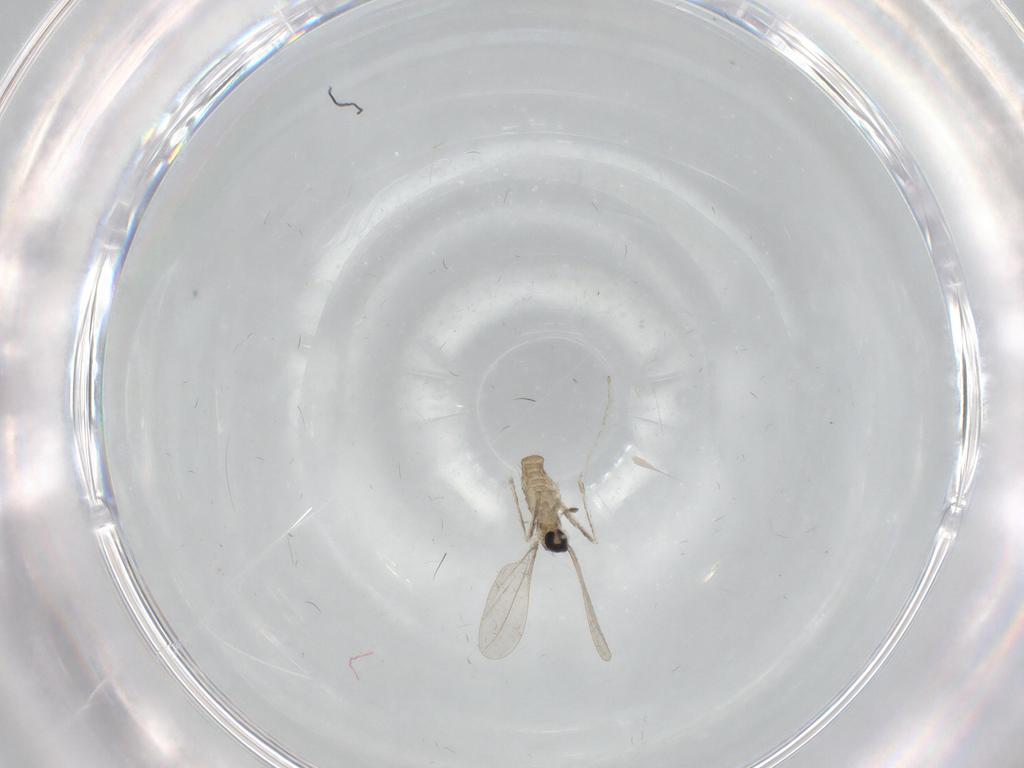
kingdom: Animalia
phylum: Arthropoda
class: Insecta
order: Diptera
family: Cecidomyiidae
